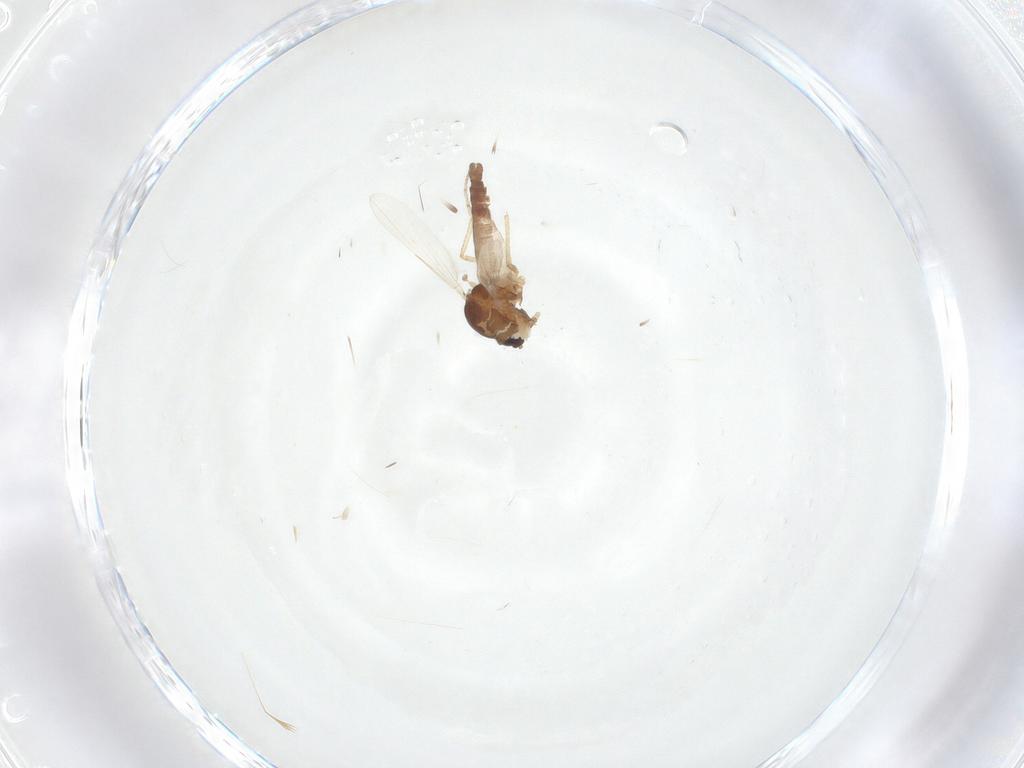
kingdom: Animalia
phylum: Arthropoda
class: Insecta
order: Diptera
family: Ceratopogonidae
